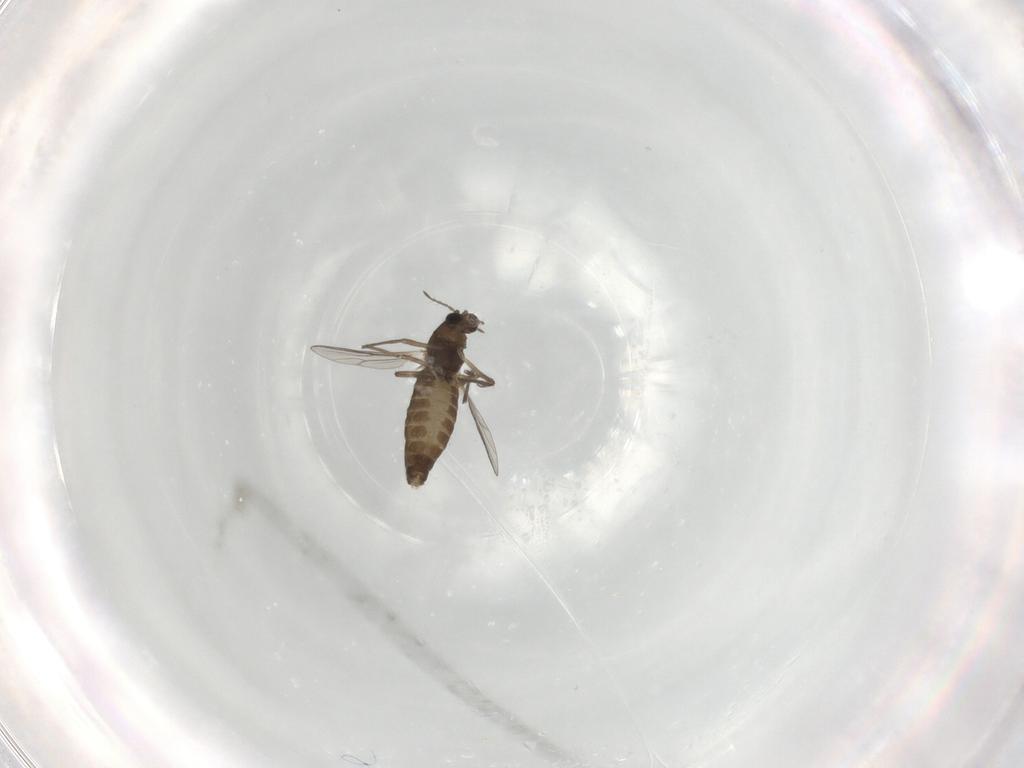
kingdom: Animalia
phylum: Arthropoda
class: Insecta
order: Diptera
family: Chironomidae
